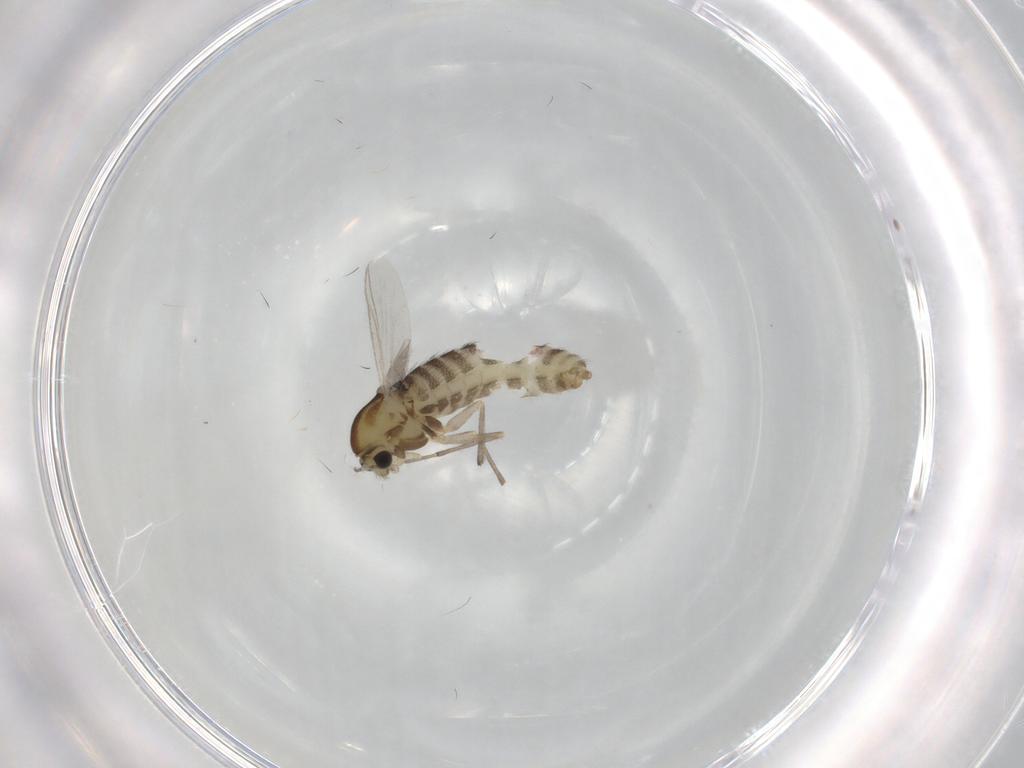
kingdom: Animalia
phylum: Arthropoda
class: Insecta
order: Diptera
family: Chironomidae
